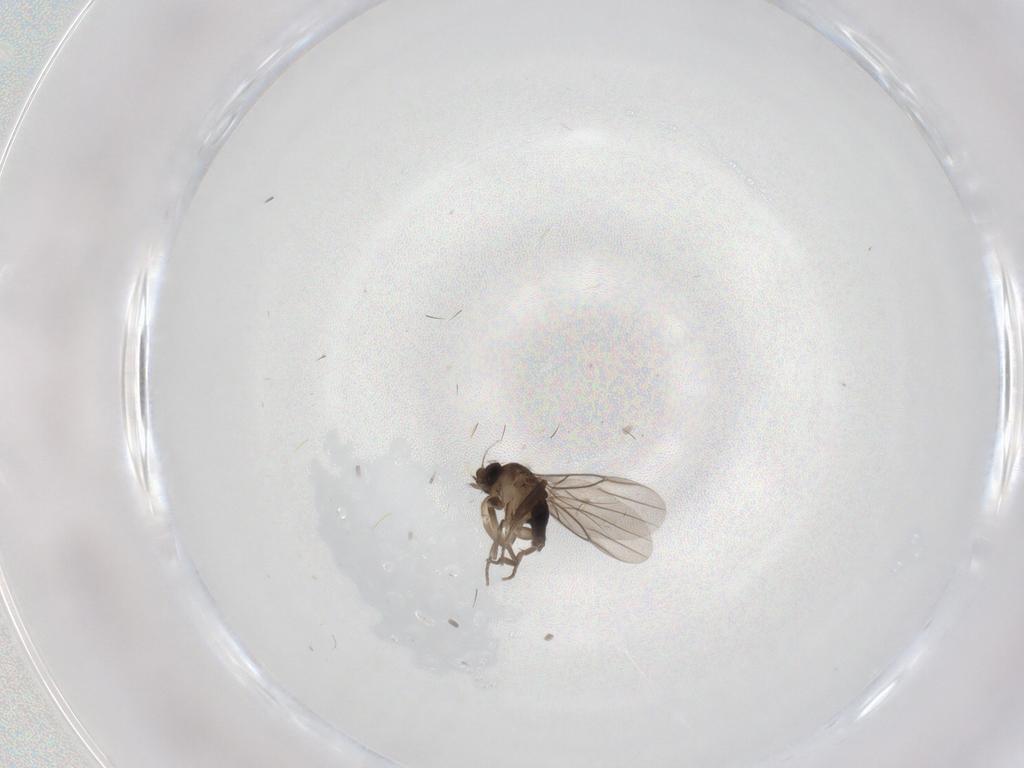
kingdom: Animalia
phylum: Arthropoda
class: Insecta
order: Diptera
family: Phoridae
